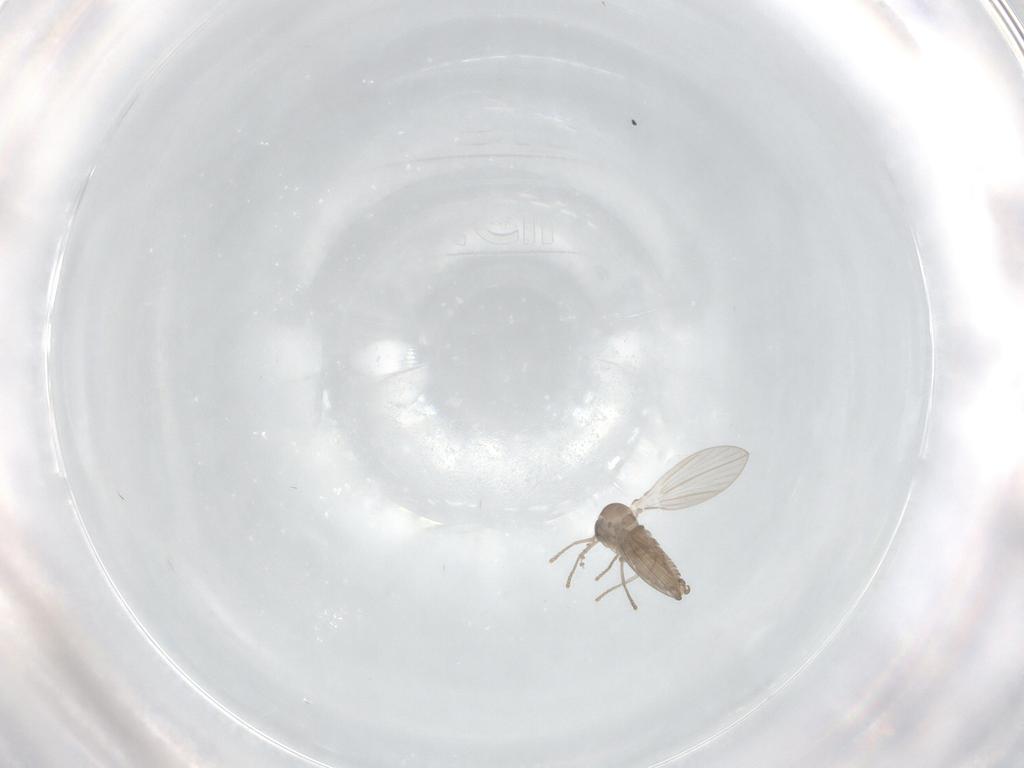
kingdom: Animalia
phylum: Arthropoda
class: Insecta
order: Diptera
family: Psychodidae
